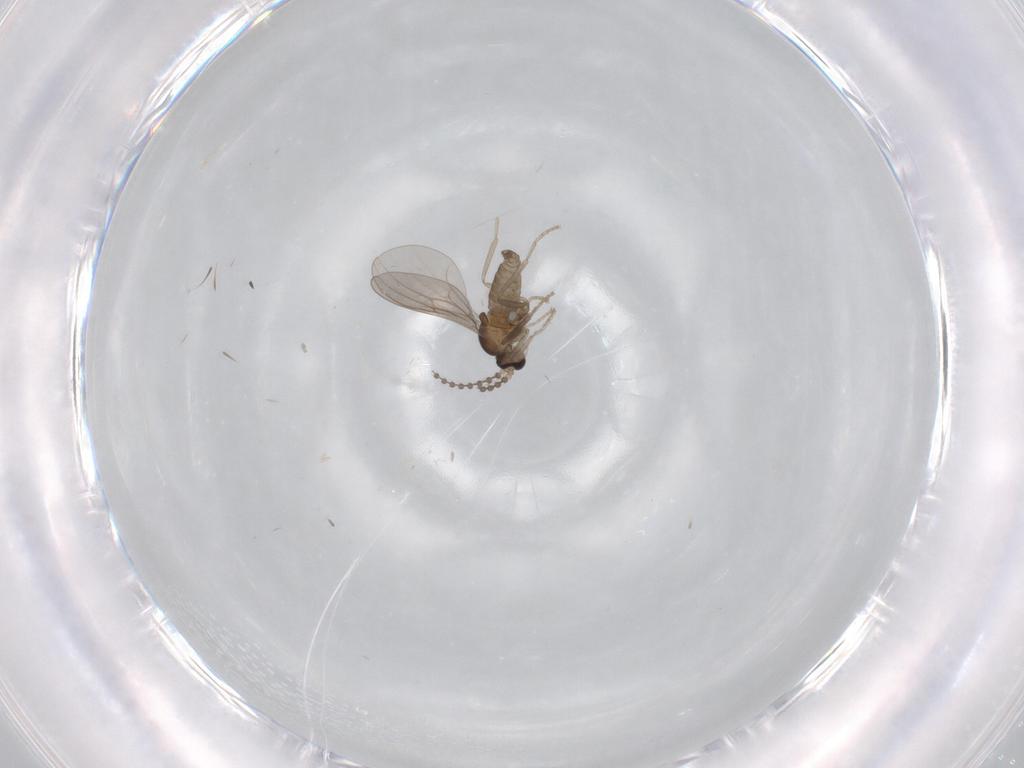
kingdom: Animalia
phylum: Arthropoda
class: Insecta
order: Diptera
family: Cecidomyiidae
